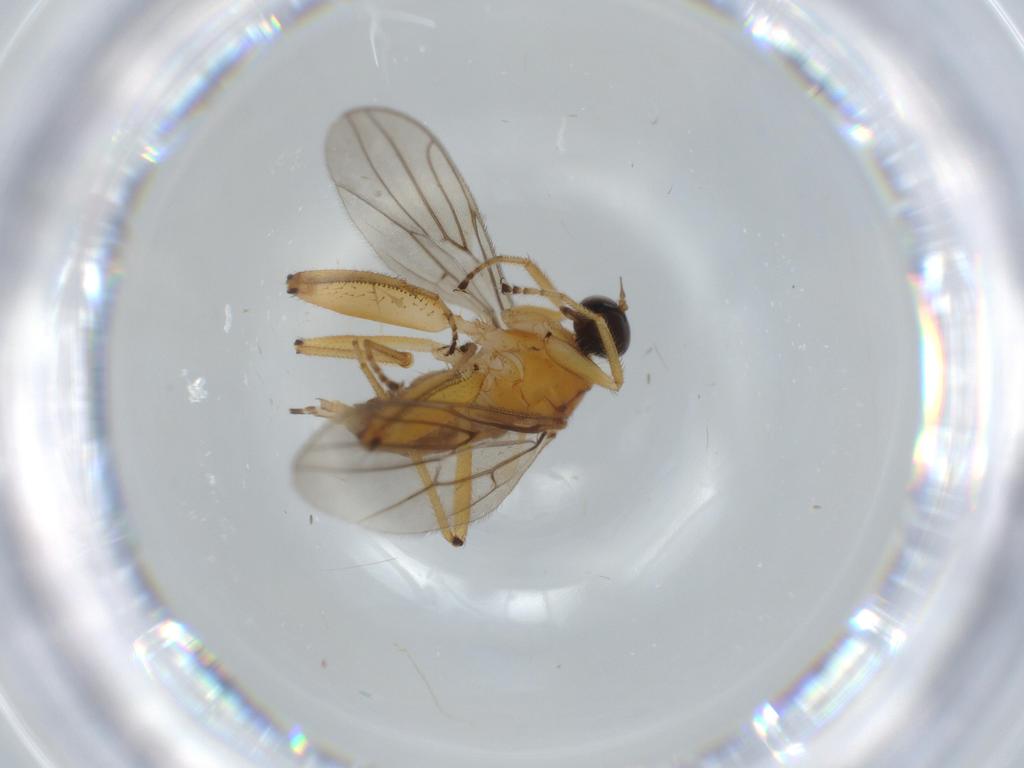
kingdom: Animalia
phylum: Arthropoda
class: Insecta
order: Diptera
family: Ceratopogonidae
